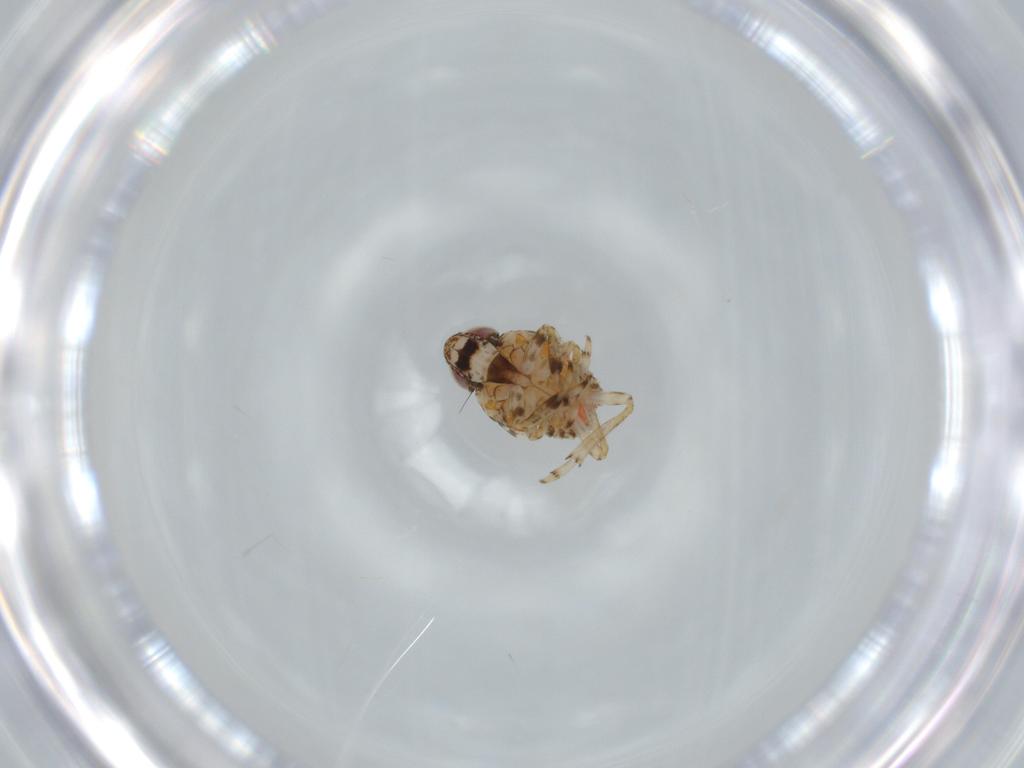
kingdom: Animalia
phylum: Arthropoda
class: Insecta
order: Hemiptera
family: Issidae
